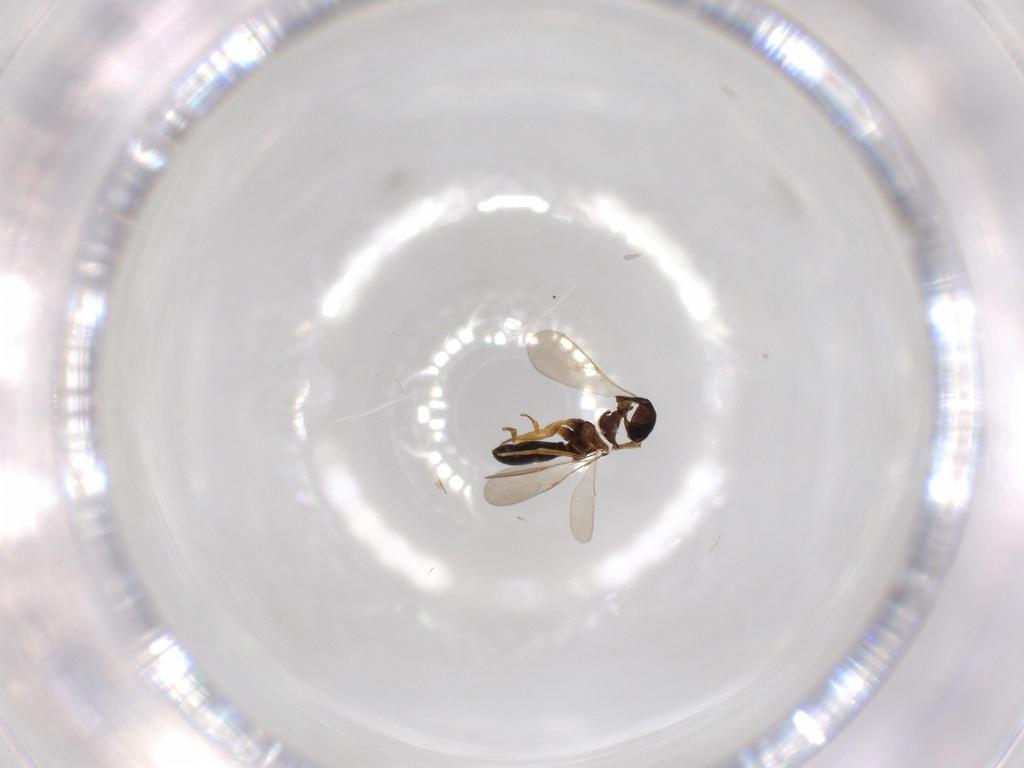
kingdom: Animalia
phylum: Arthropoda
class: Insecta
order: Hymenoptera
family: Scelionidae
